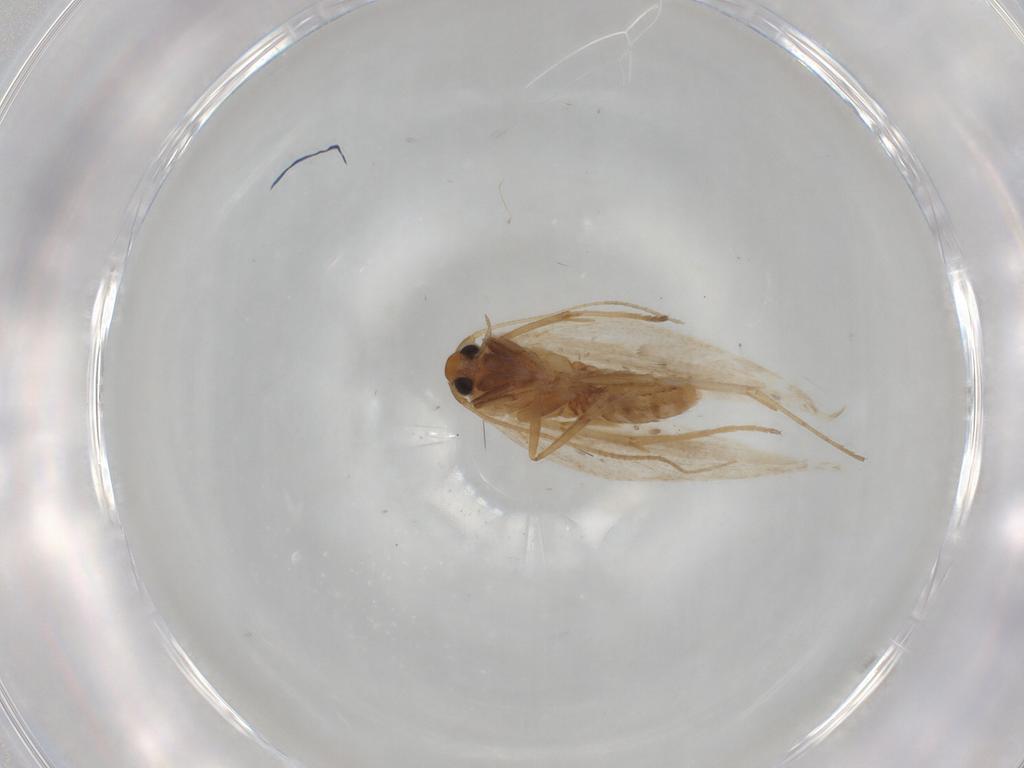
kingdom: Animalia
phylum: Arthropoda
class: Insecta
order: Lepidoptera
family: Gelechiidae
